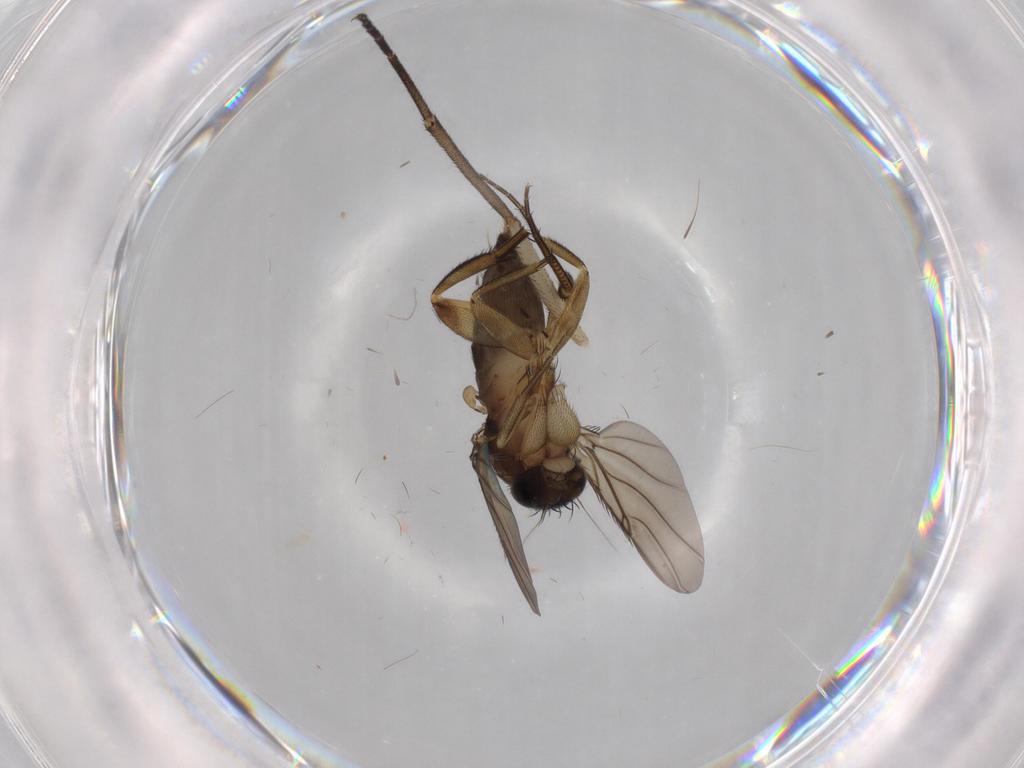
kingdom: Animalia
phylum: Arthropoda
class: Insecta
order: Diptera
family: Phoridae
